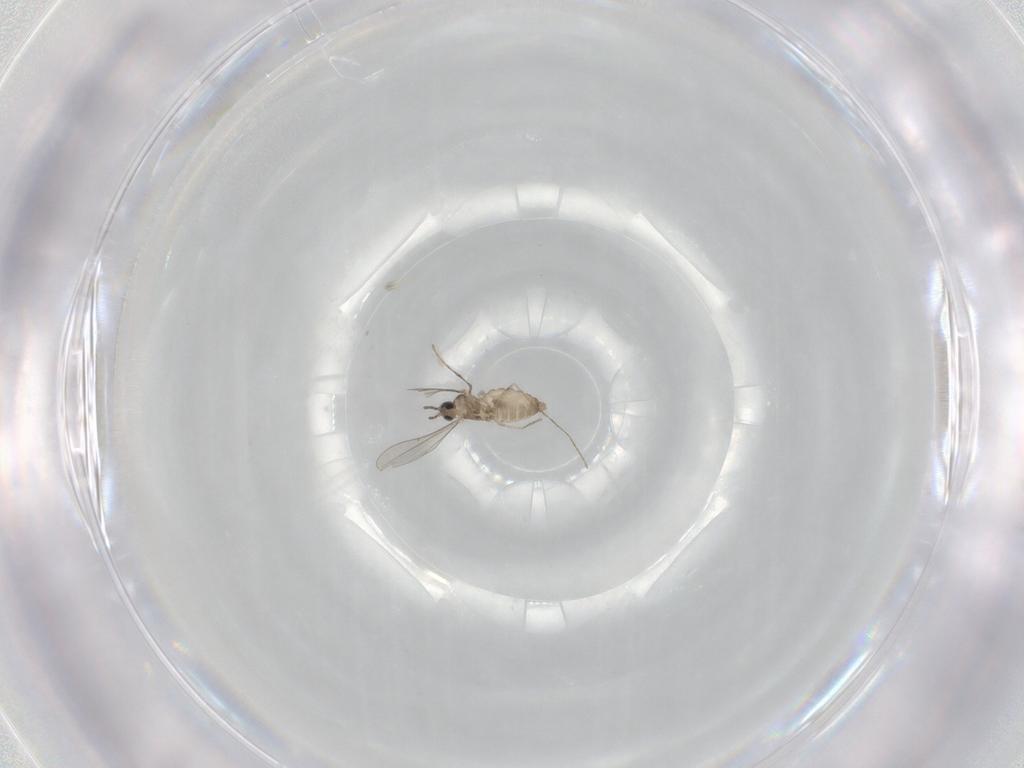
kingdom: Animalia
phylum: Arthropoda
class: Insecta
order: Diptera
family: Cecidomyiidae
